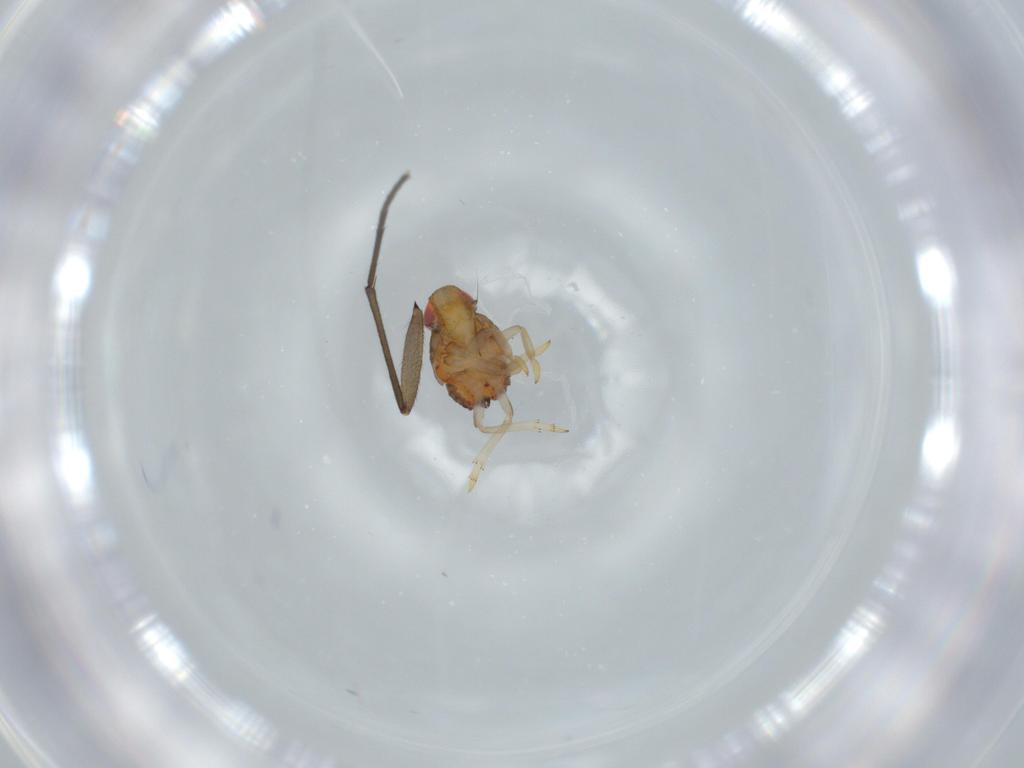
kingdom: Animalia
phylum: Arthropoda
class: Insecta
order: Hemiptera
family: Issidae
